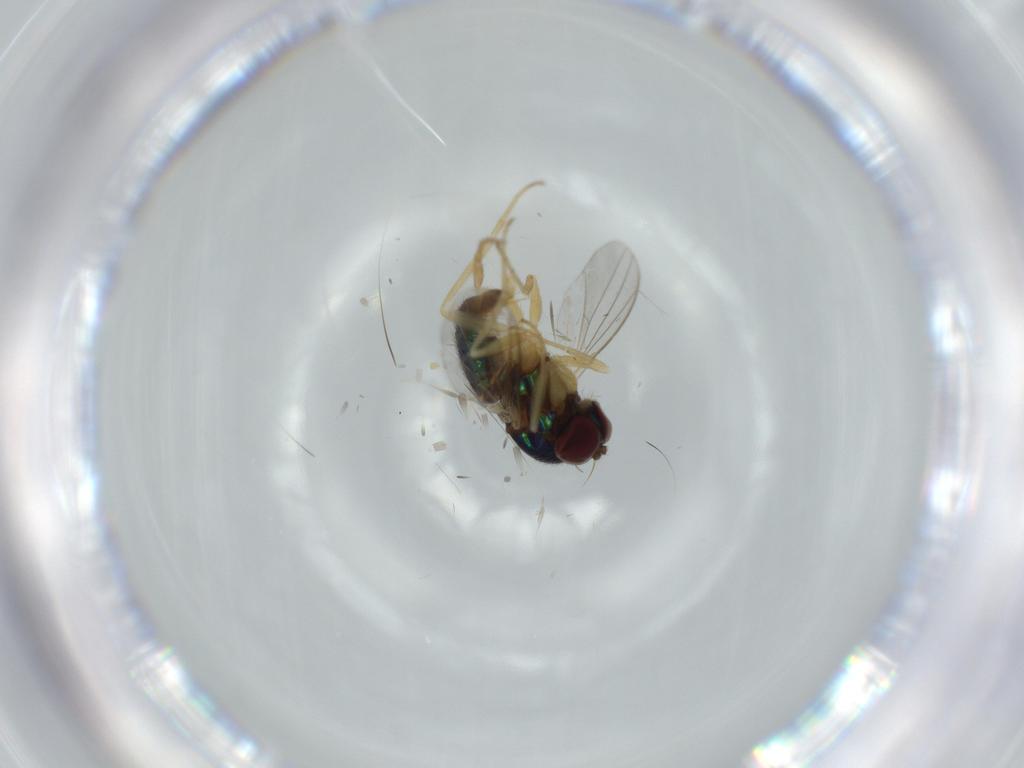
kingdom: Animalia
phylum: Arthropoda
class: Insecta
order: Diptera
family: Dolichopodidae
